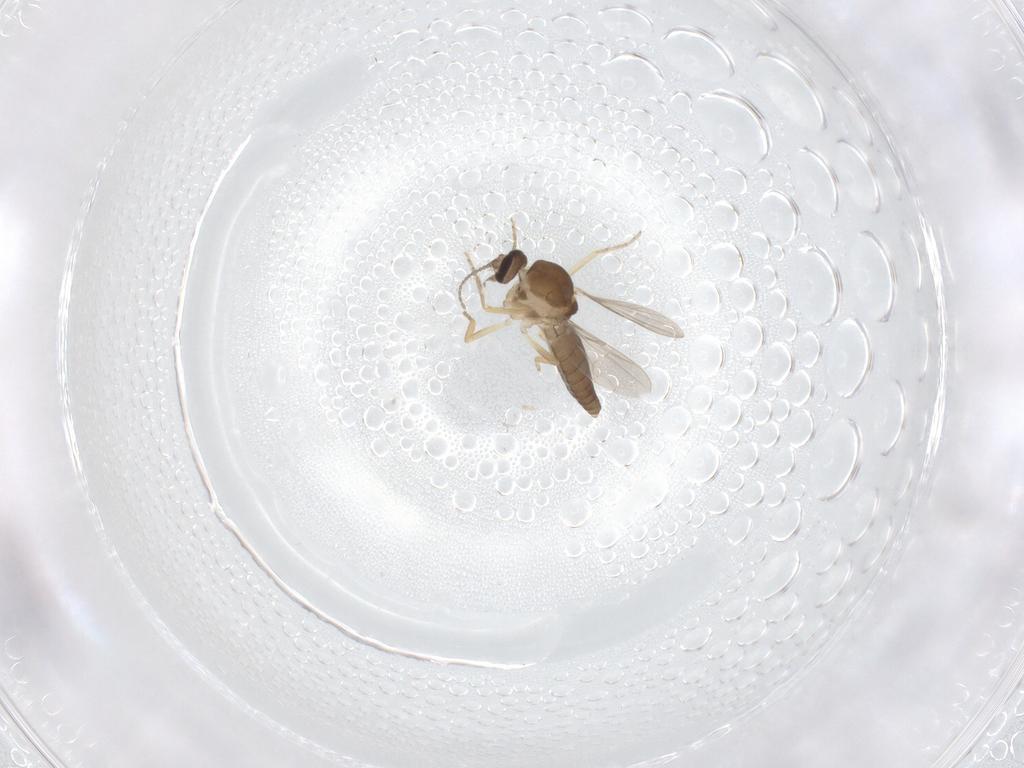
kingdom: Animalia
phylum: Arthropoda
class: Insecta
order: Diptera
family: Ceratopogonidae
